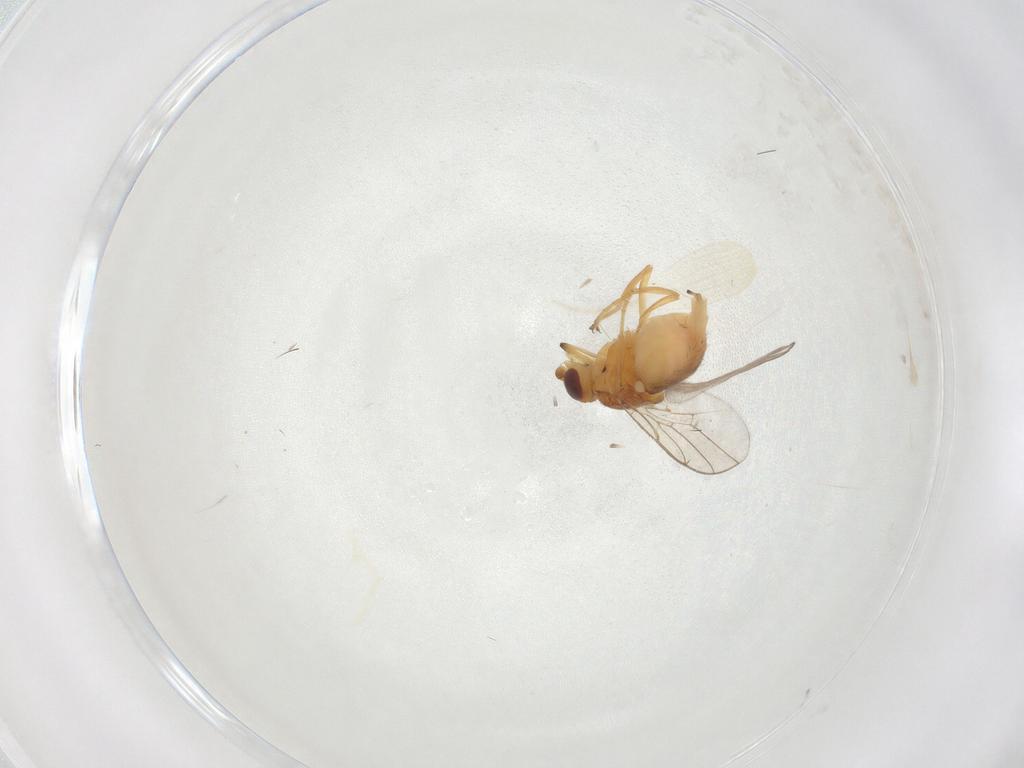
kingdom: Animalia
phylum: Arthropoda
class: Insecta
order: Diptera
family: Chloropidae
